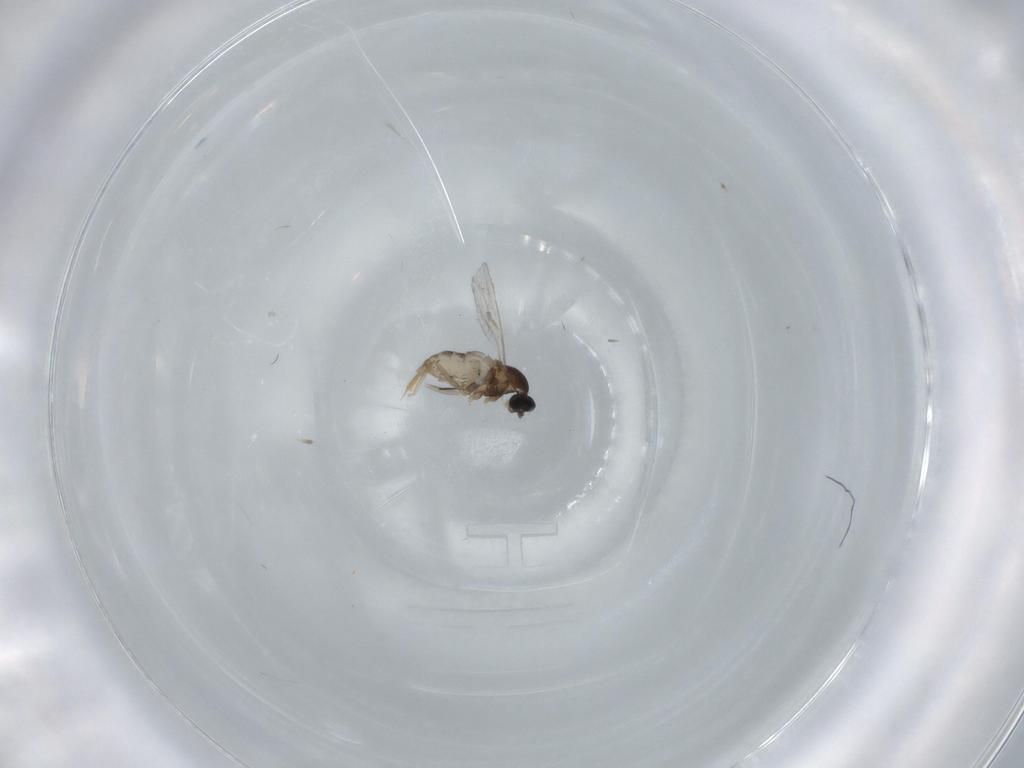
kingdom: Animalia
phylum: Arthropoda
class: Insecta
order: Diptera
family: Cecidomyiidae
